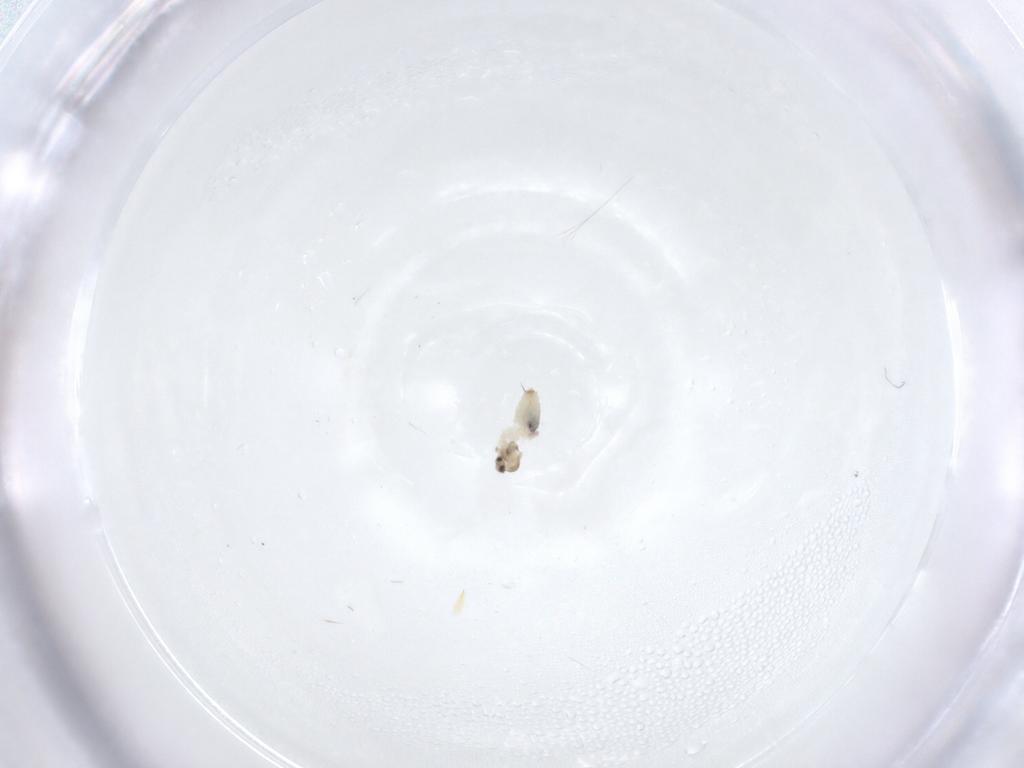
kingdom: Animalia
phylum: Arthropoda
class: Insecta
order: Diptera
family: Cecidomyiidae
